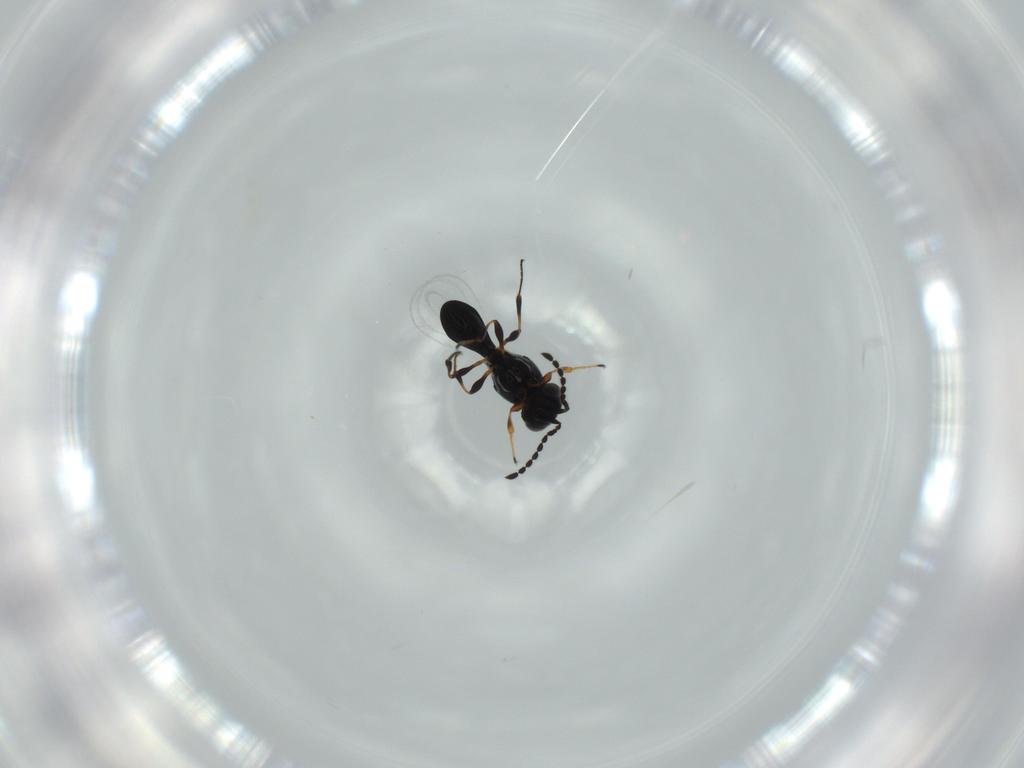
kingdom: Animalia
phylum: Arthropoda
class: Insecta
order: Hymenoptera
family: Platygastridae
